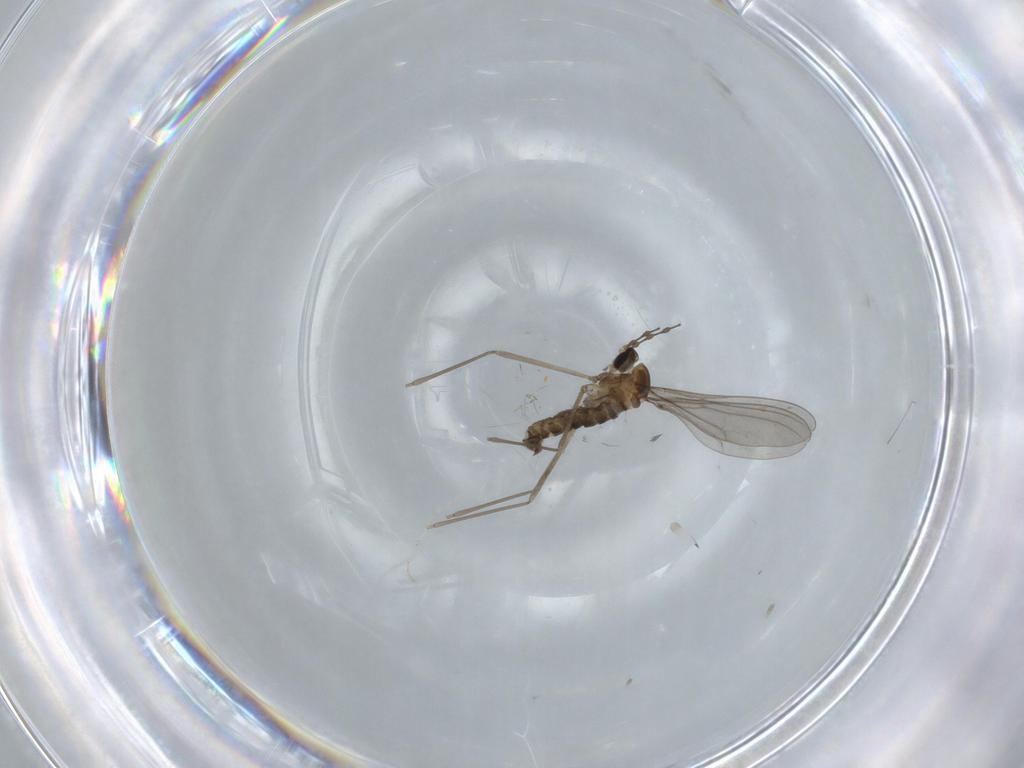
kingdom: Animalia
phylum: Arthropoda
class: Insecta
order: Diptera
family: Cecidomyiidae
